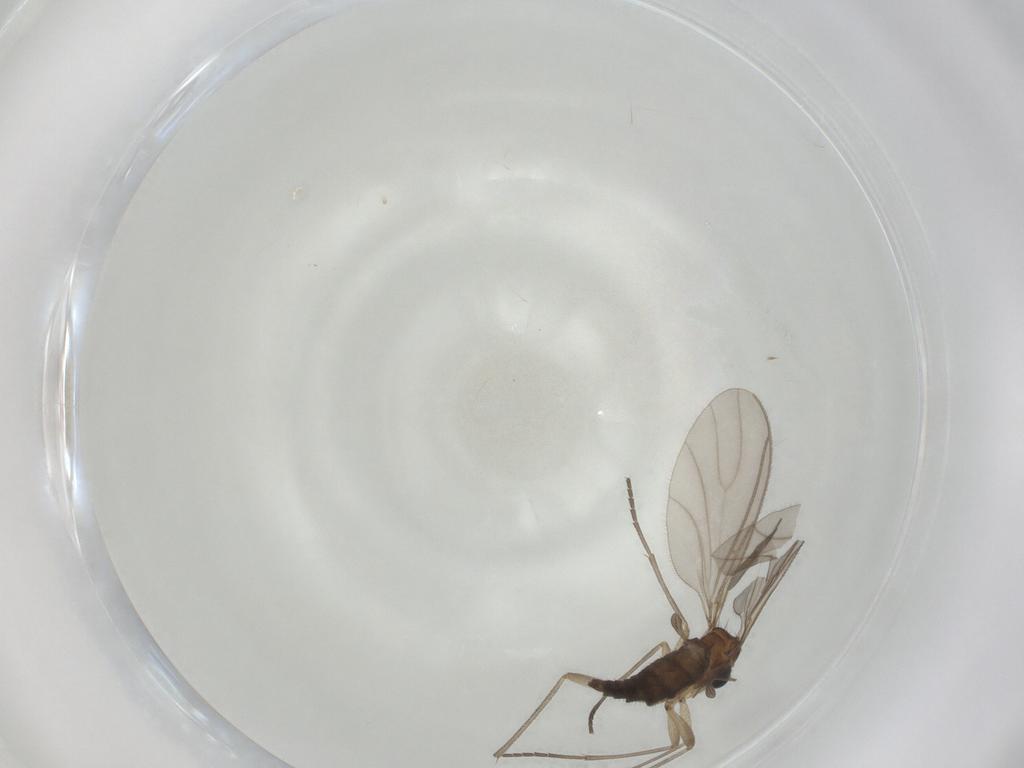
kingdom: Animalia
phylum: Arthropoda
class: Insecta
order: Diptera
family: Sciaridae
